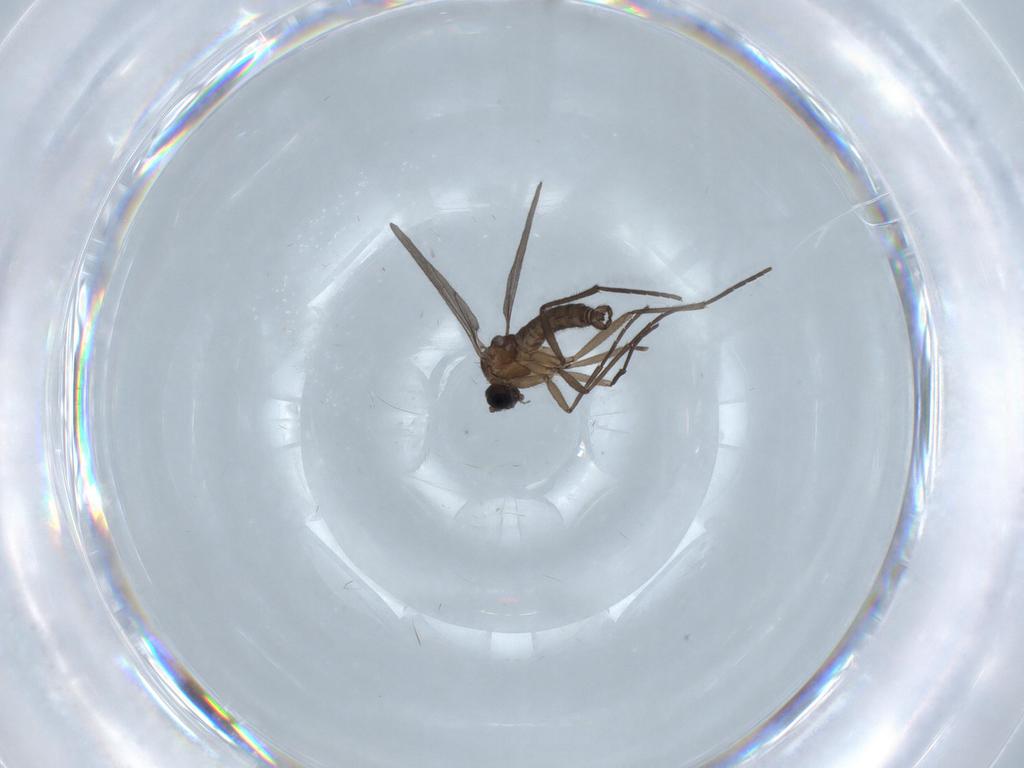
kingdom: Animalia
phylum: Arthropoda
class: Insecta
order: Diptera
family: Limoniidae
